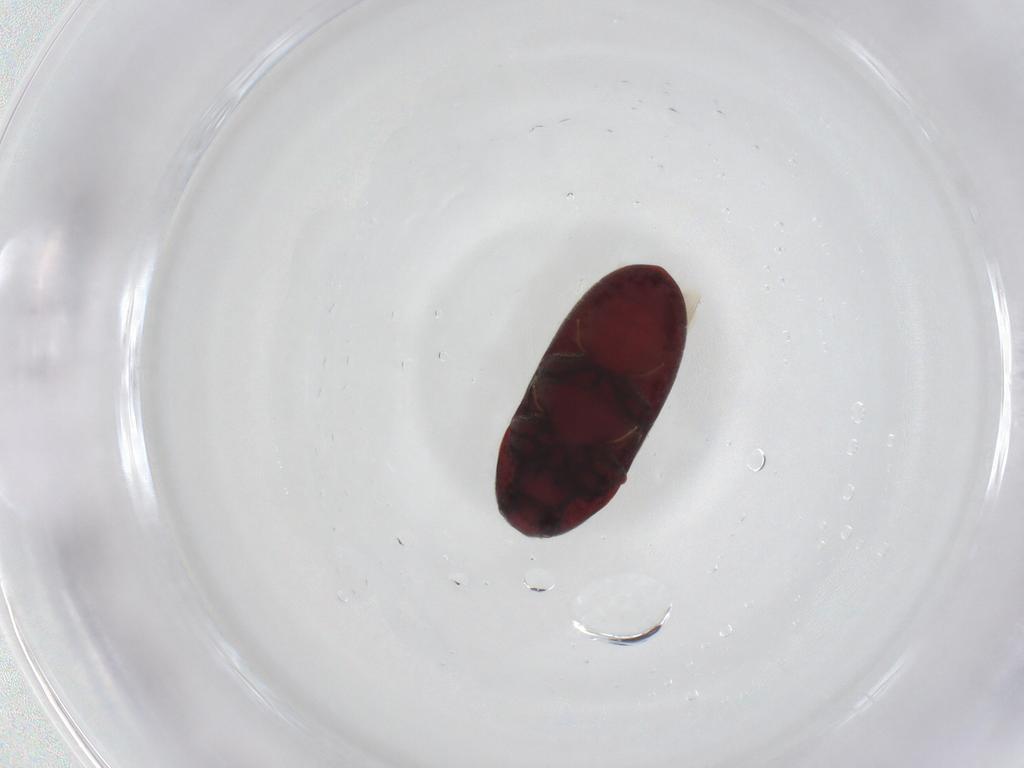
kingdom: Animalia
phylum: Arthropoda
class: Insecta
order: Coleoptera
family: Throscidae
